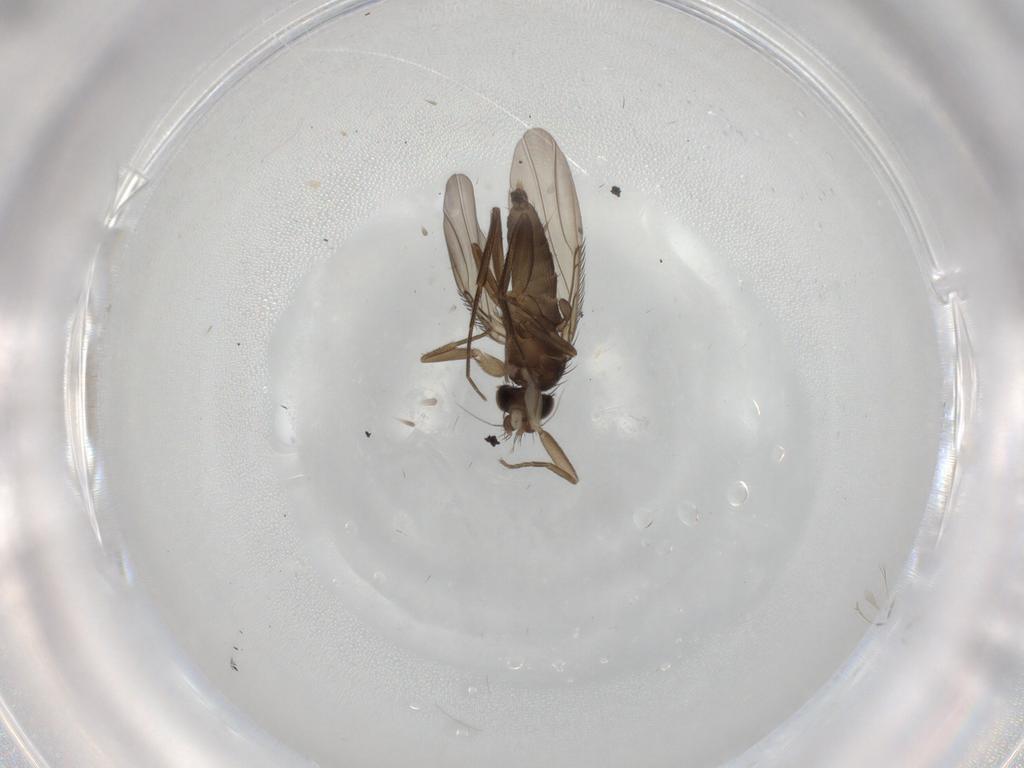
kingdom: Animalia
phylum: Arthropoda
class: Insecta
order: Diptera
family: Phoridae
